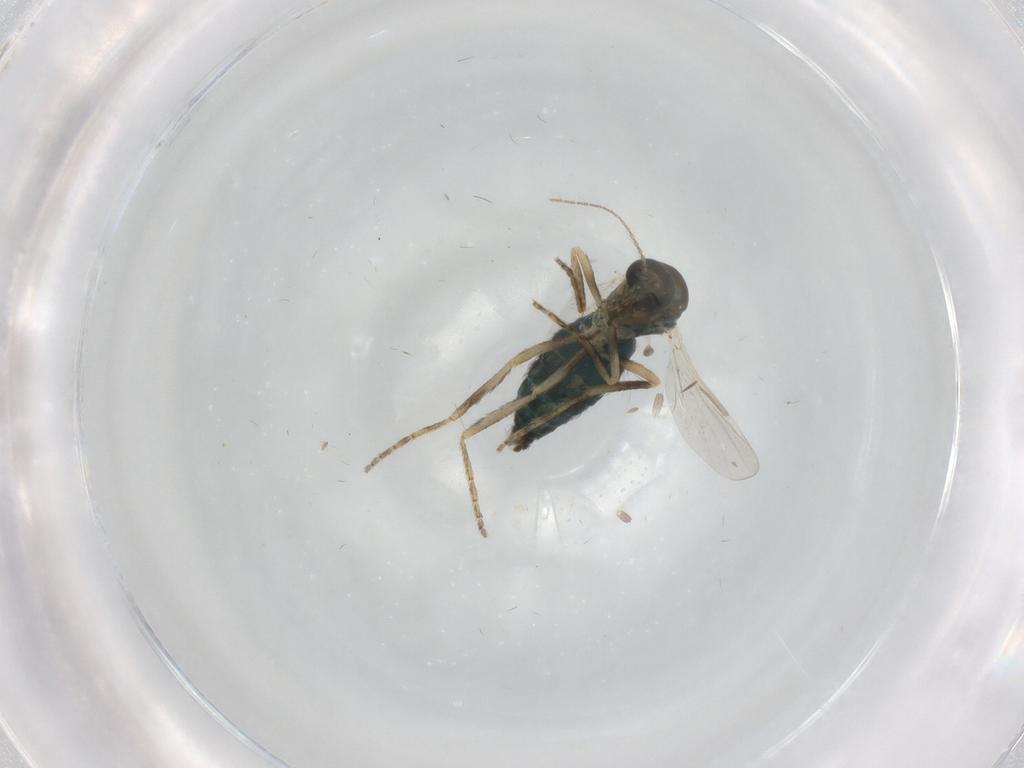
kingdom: Animalia
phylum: Arthropoda
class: Insecta
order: Diptera
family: Ceratopogonidae
